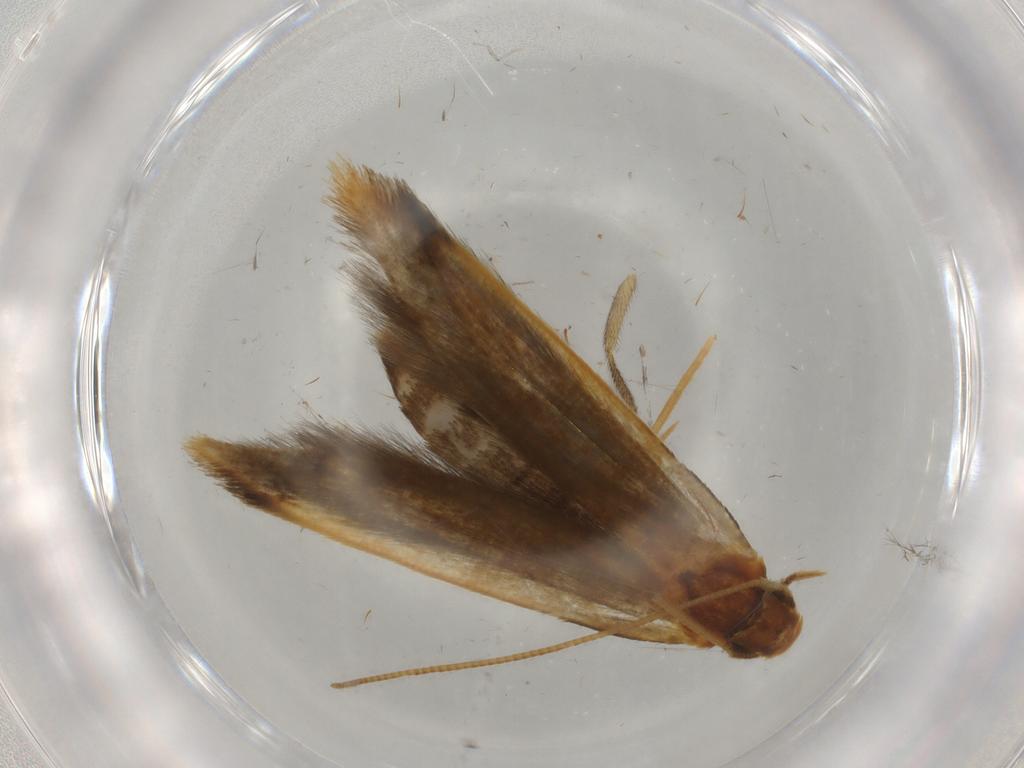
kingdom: Animalia
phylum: Arthropoda
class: Insecta
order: Lepidoptera
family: Tineidae
